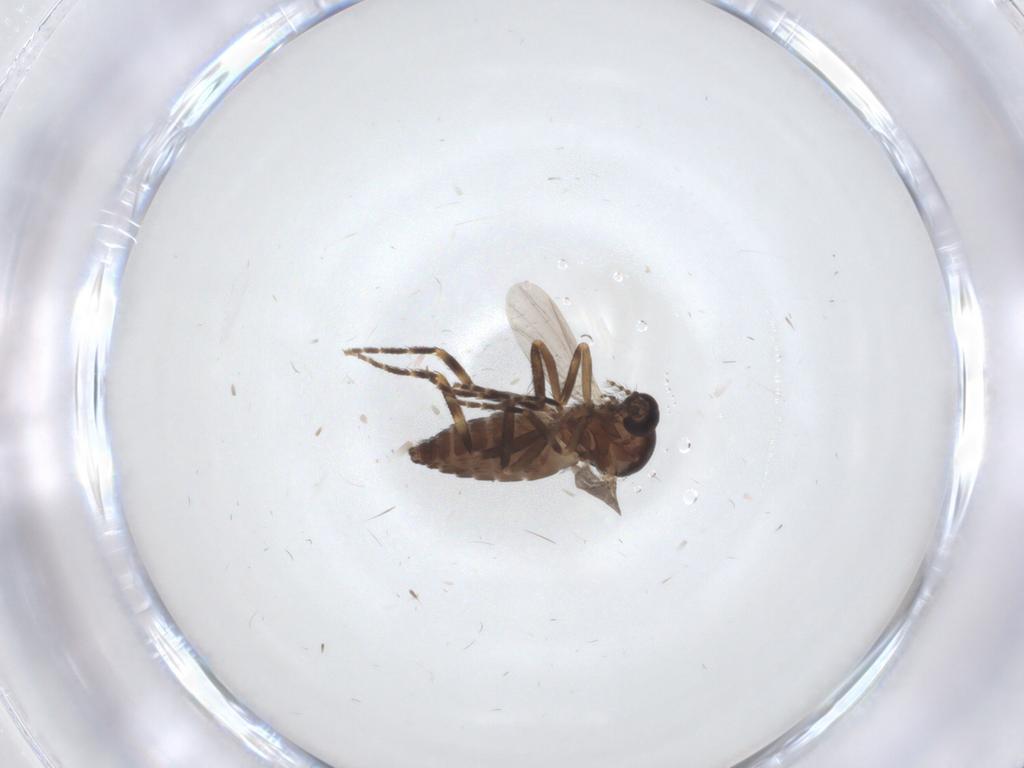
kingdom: Animalia
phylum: Arthropoda
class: Insecta
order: Diptera
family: Ceratopogonidae
